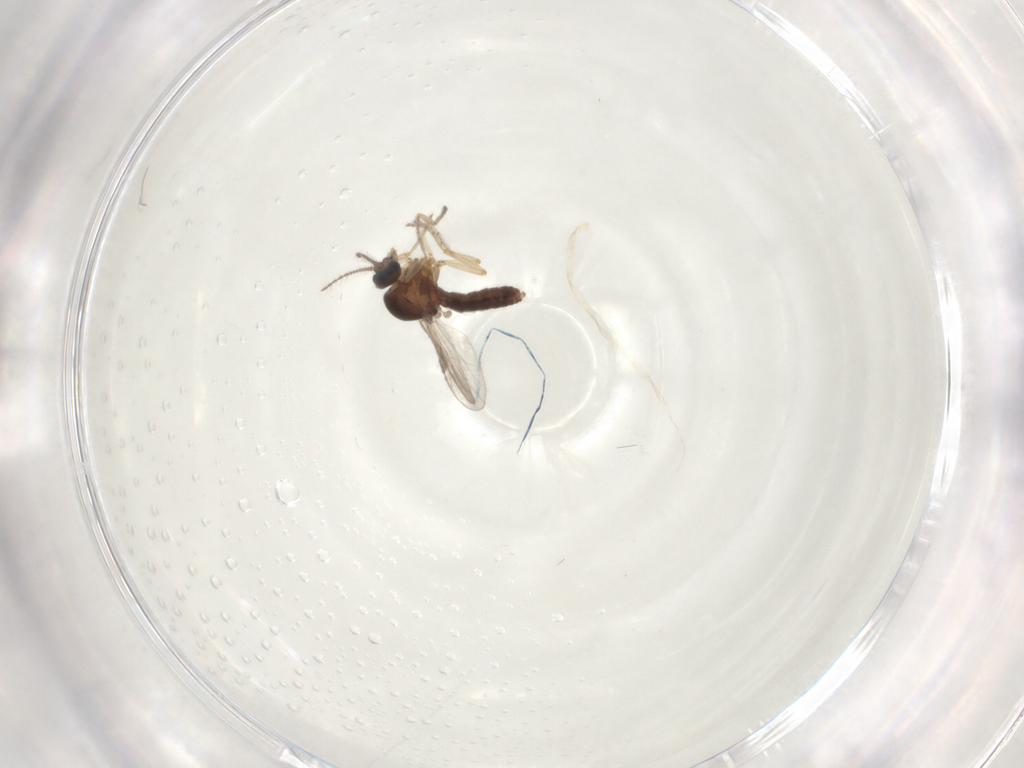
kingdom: Animalia
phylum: Arthropoda
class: Insecta
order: Diptera
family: Ceratopogonidae
